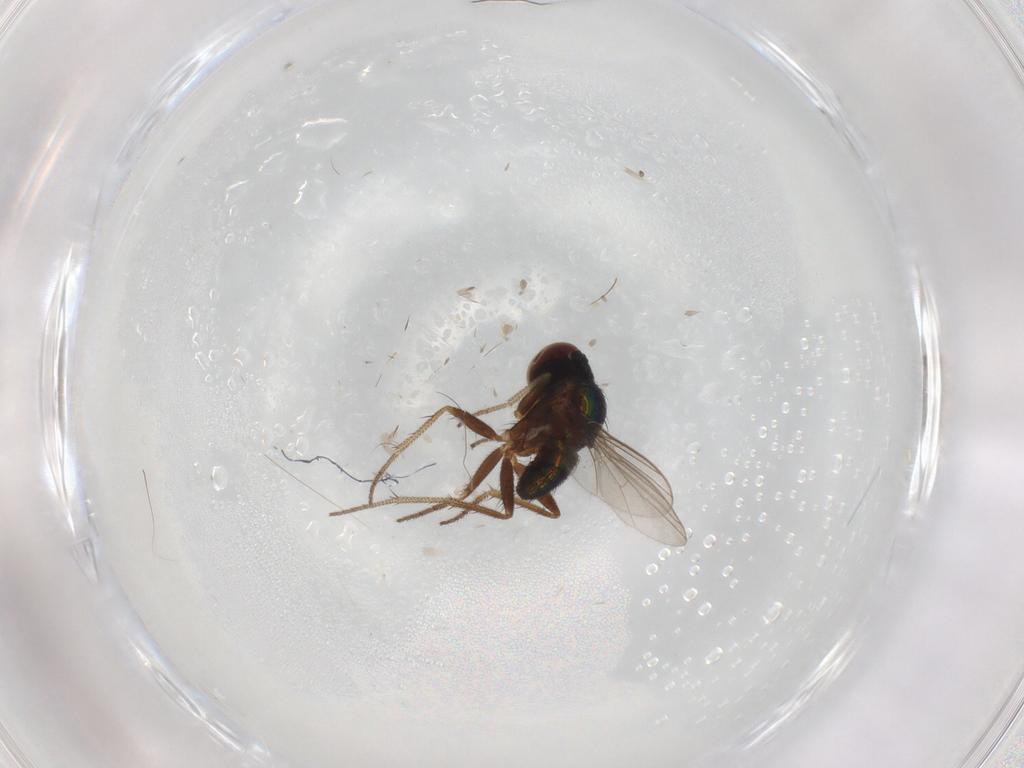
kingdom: Animalia
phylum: Arthropoda
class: Insecta
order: Diptera
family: Dolichopodidae
